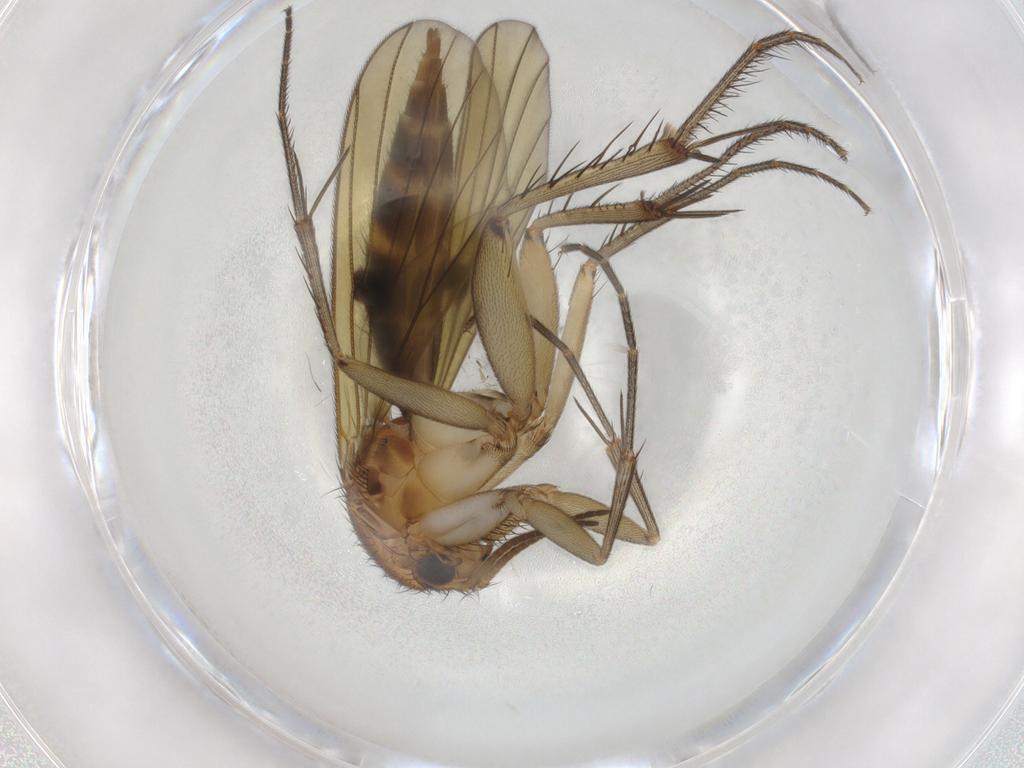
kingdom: Animalia
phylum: Arthropoda
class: Insecta
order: Diptera
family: Mycetophilidae
